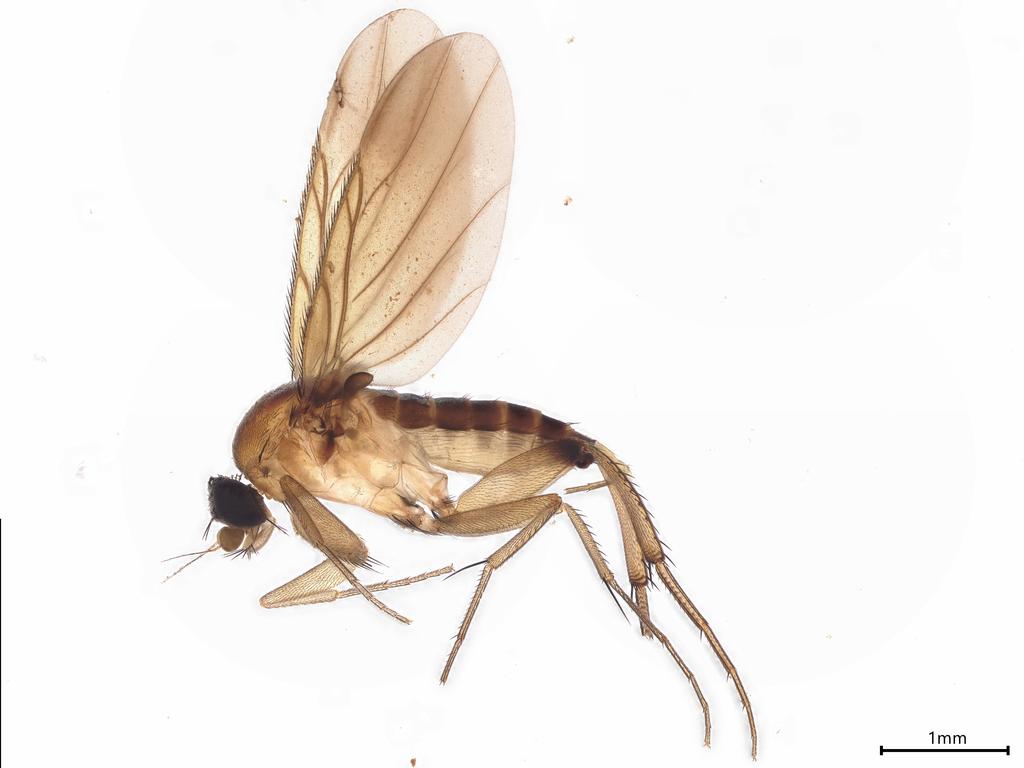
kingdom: Animalia
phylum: Arthropoda
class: Insecta
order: Diptera
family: Phoridae
